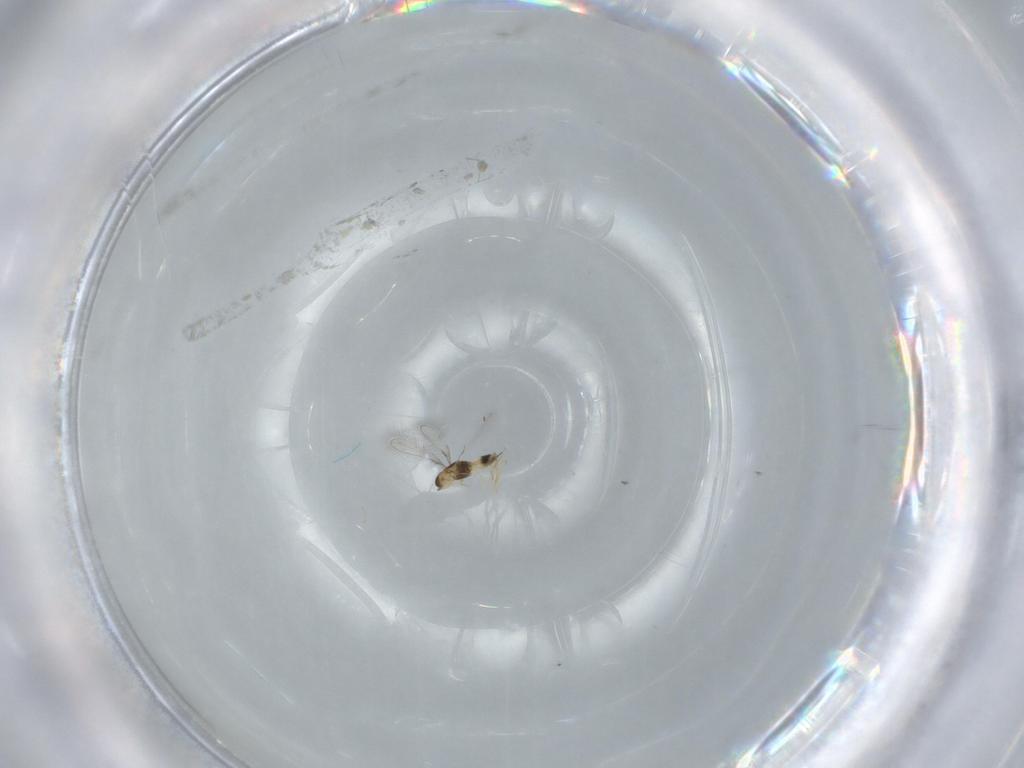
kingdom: Animalia
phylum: Arthropoda
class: Insecta
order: Hymenoptera
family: Mymaridae
